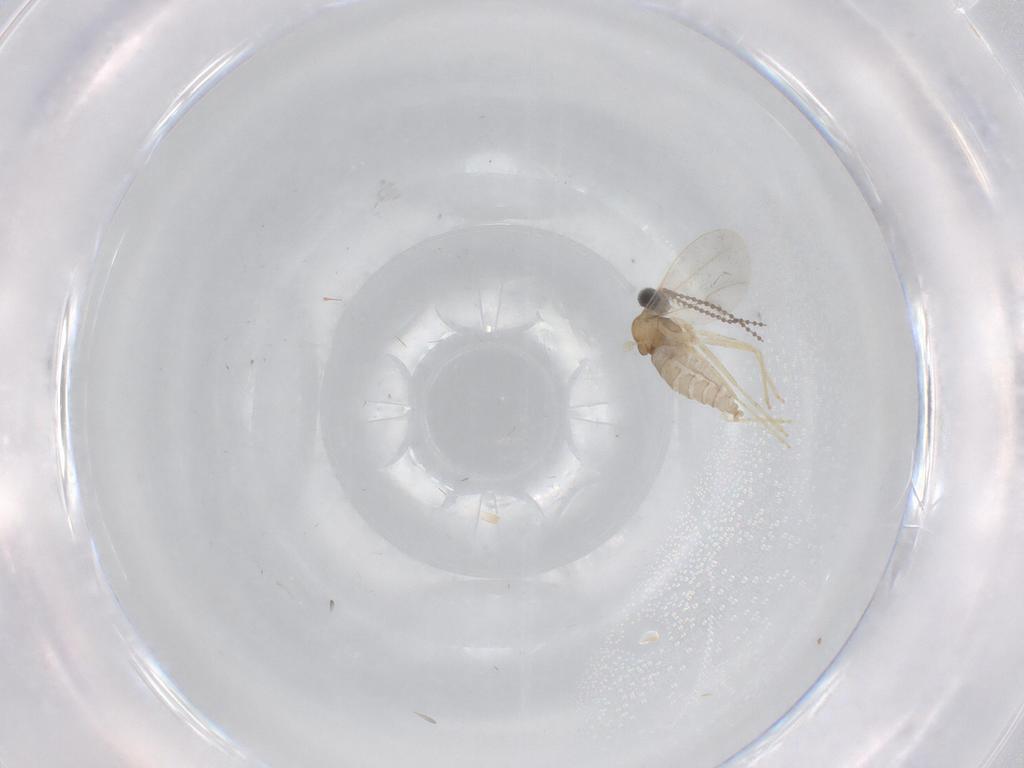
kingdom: Animalia
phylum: Arthropoda
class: Insecta
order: Diptera
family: Cecidomyiidae
